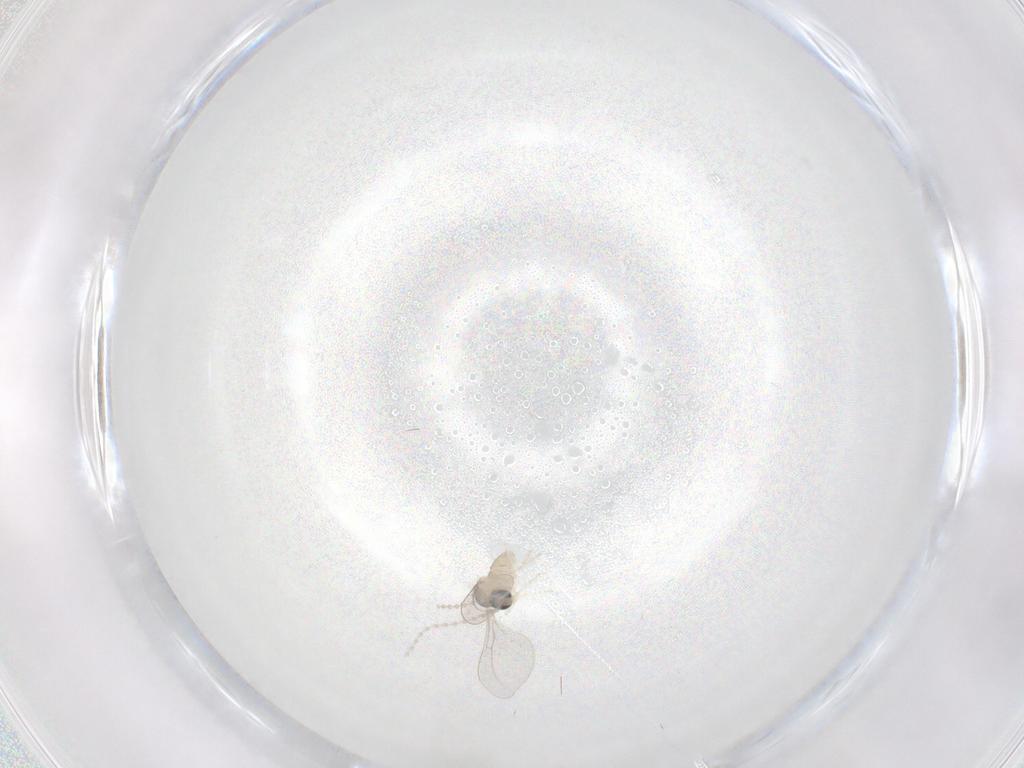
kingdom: Animalia
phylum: Arthropoda
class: Insecta
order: Diptera
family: Cecidomyiidae
